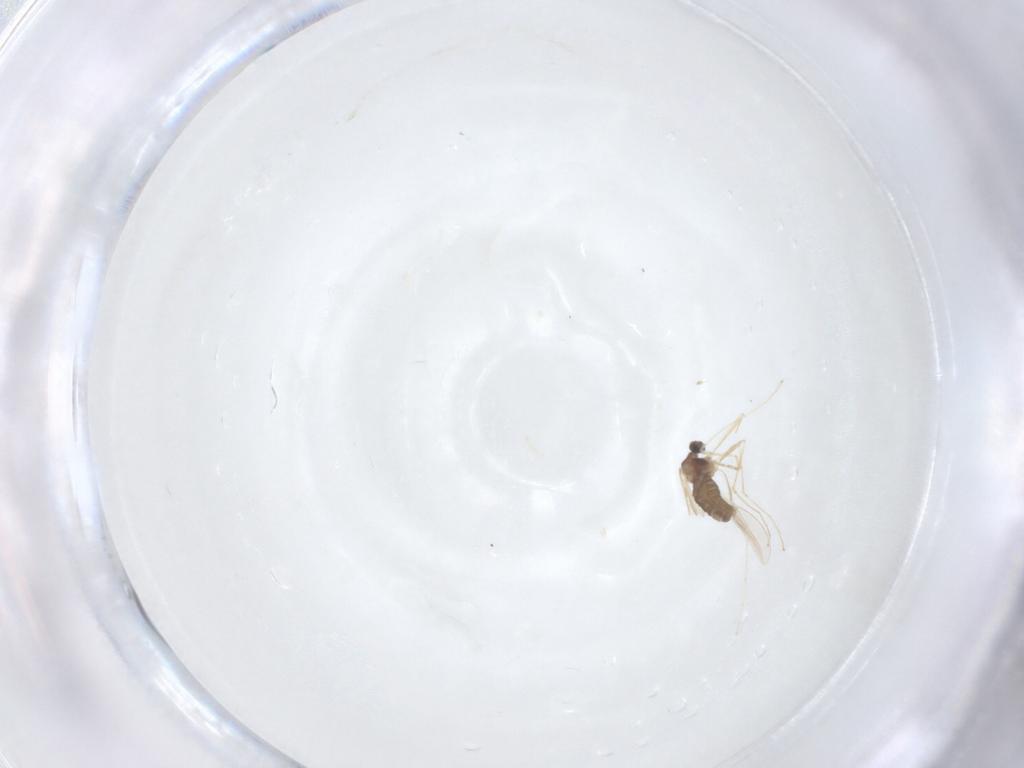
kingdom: Animalia
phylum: Arthropoda
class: Insecta
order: Diptera
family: Cecidomyiidae
